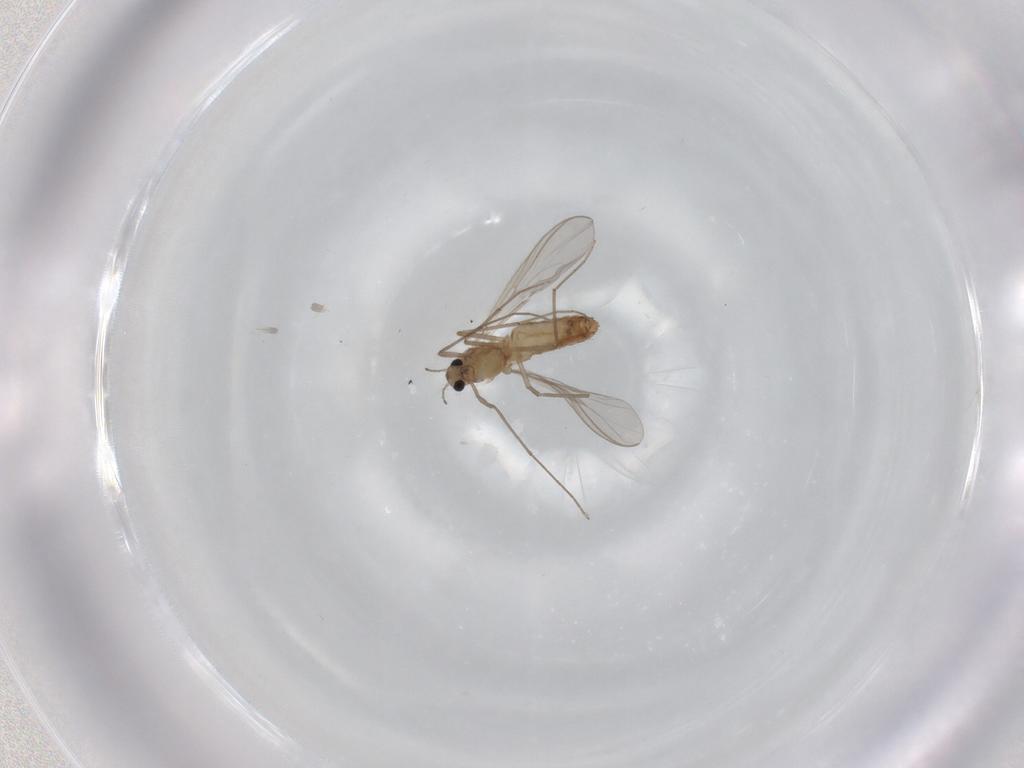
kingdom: Animalia
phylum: Arthropoda
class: Insecta
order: Diptera
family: Chironomidae
